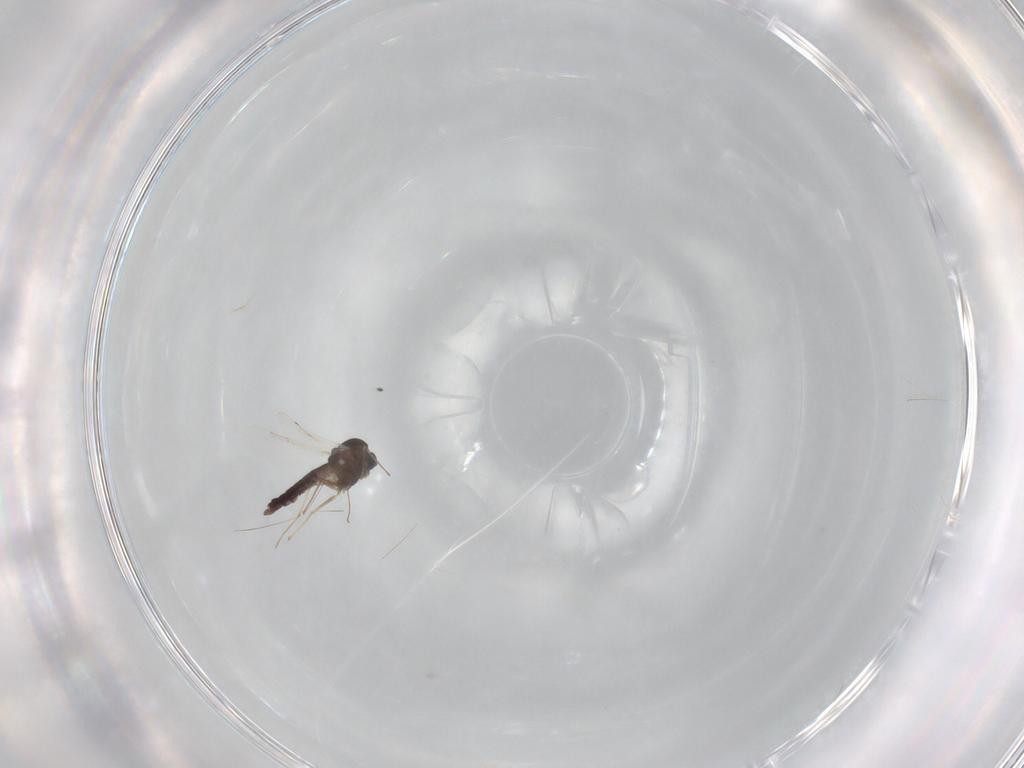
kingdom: Animalia
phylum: Arthropoda
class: Insecta
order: Diptera
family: Chironomidae
